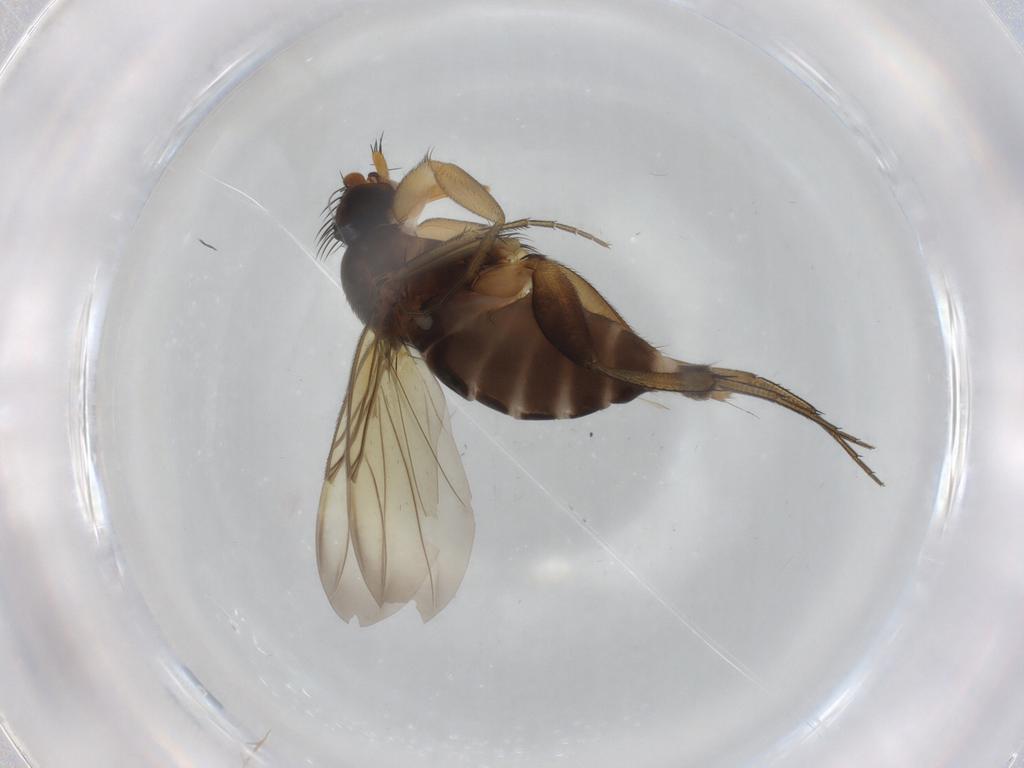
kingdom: Animalia
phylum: Arthropoda
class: Insecta
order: Diptera
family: Phoridae
